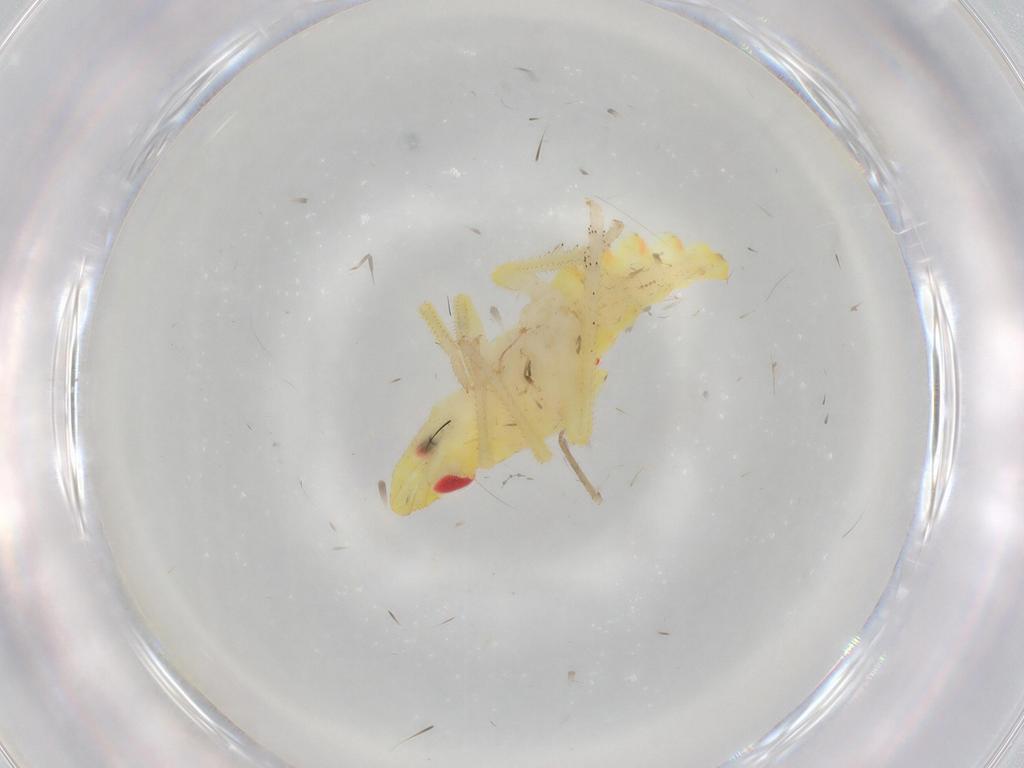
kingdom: Animalia
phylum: Arthropoda
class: Insecta
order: Hemiptera
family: Tropiduchidae
